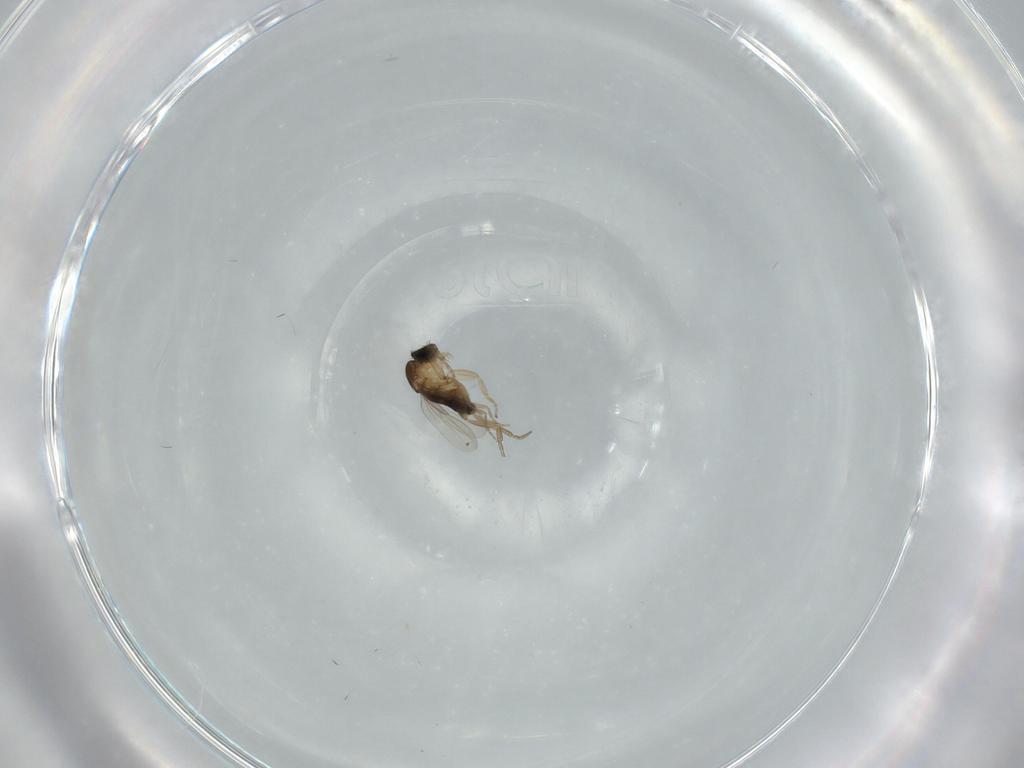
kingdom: Animalia
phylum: Arthropoda
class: Insecta
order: Diptera
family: Phoridae
